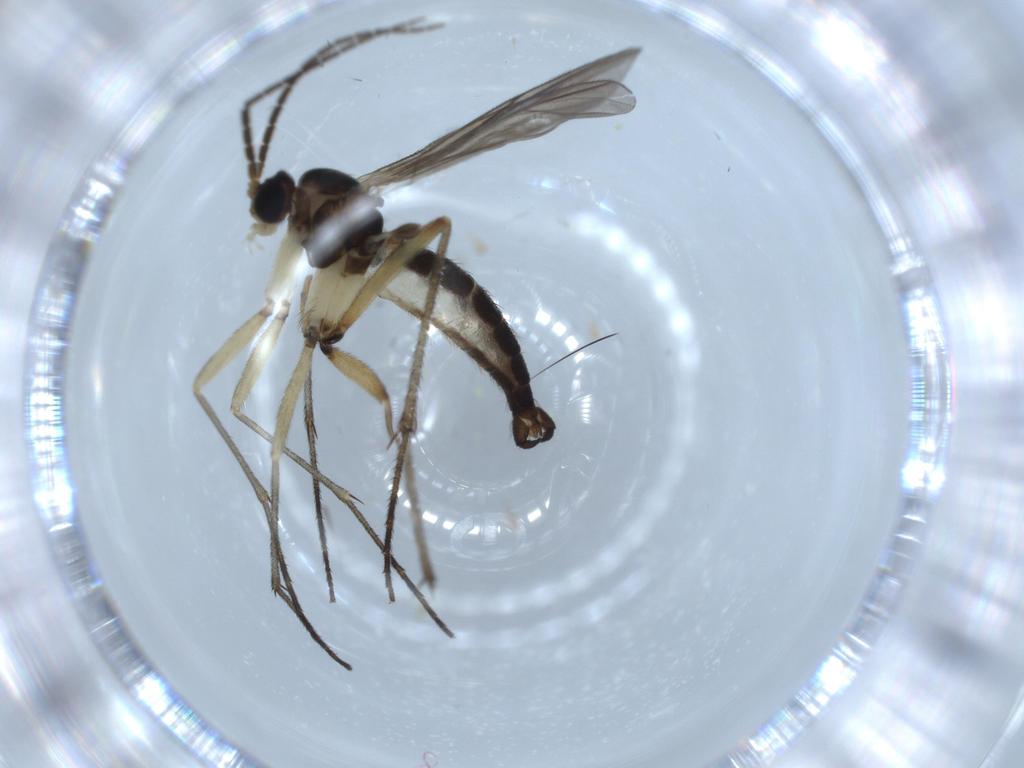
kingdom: Animalia
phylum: Arthropoda
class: Insecta
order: Diptera
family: Sciaridae
